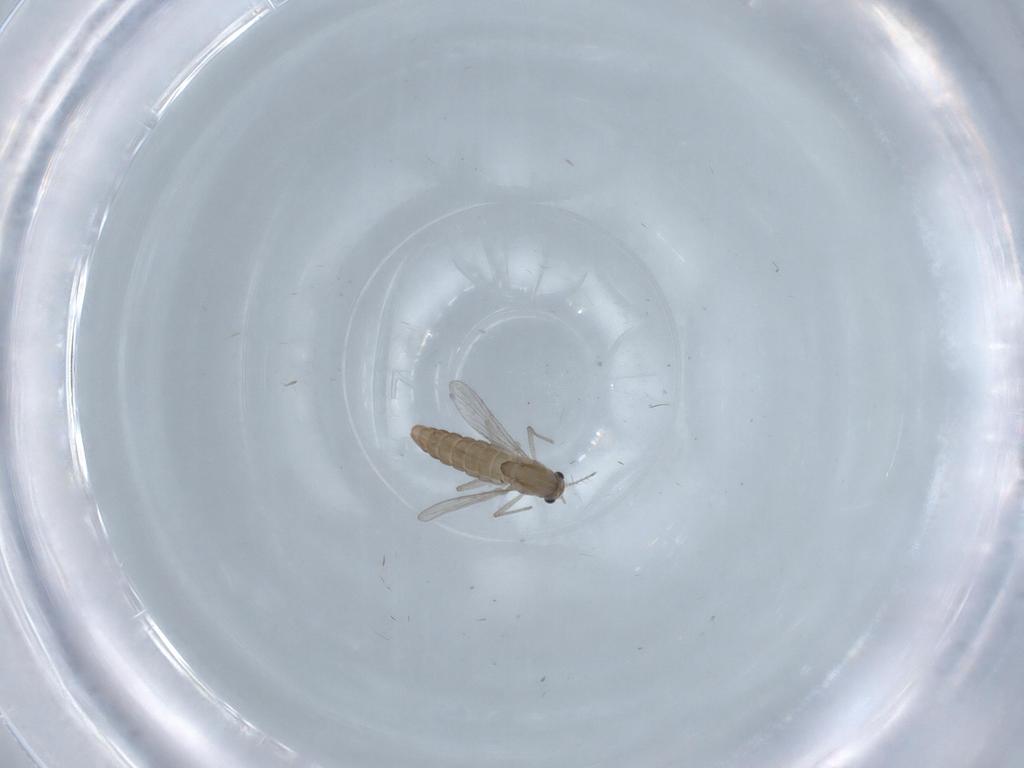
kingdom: Animalia
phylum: Arthropoda
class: Insecta
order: Diptera
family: Chironomidae
